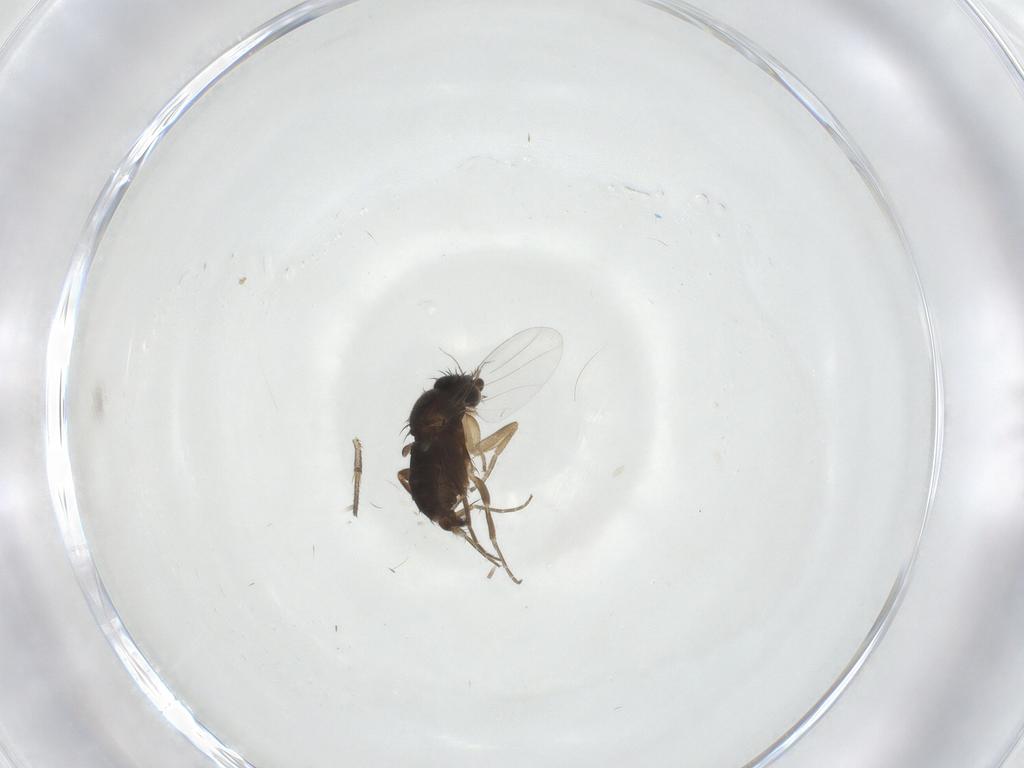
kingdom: Animalia
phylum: Arthropoda
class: Insecta
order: Diptera
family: Phoridae
